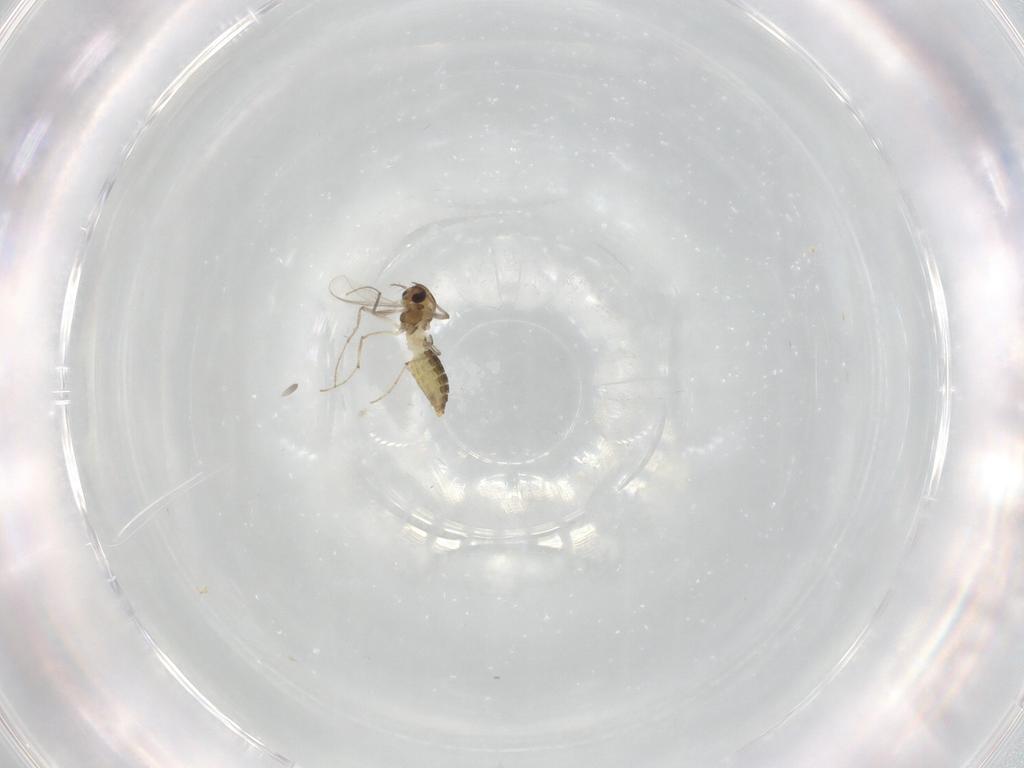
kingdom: Animalia
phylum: Arthropoda
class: Insecta
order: Diptera
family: Chironomidae
